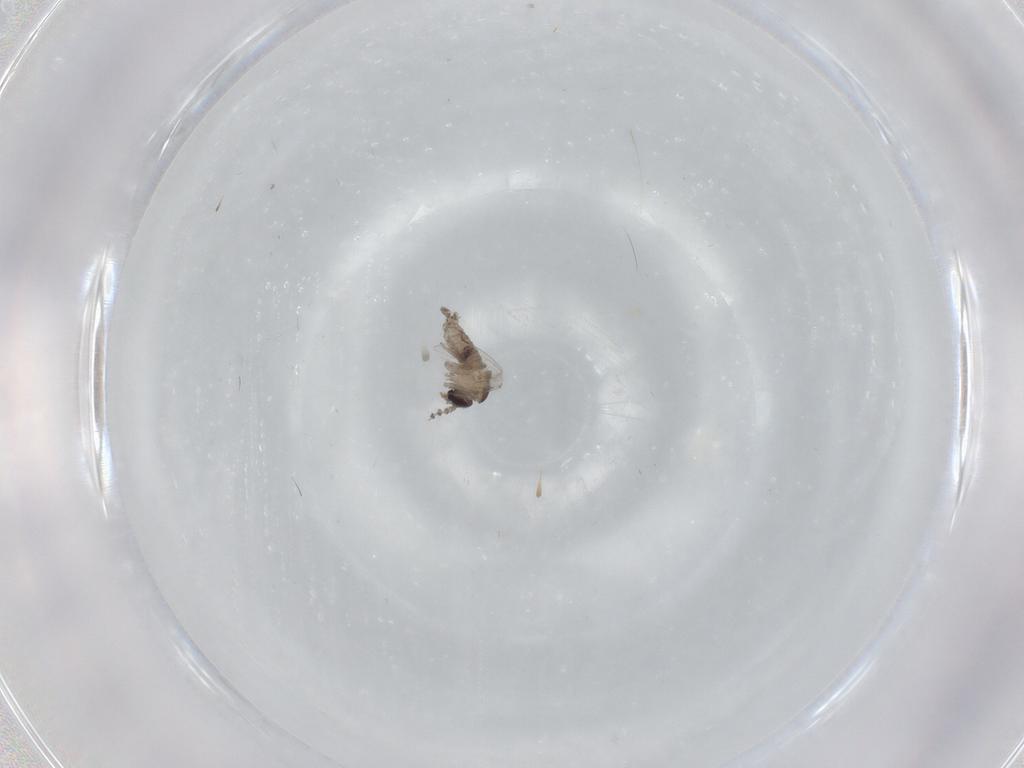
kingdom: Animalia
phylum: Arthropoda
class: Insecta
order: Diptera
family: Psychodidae
